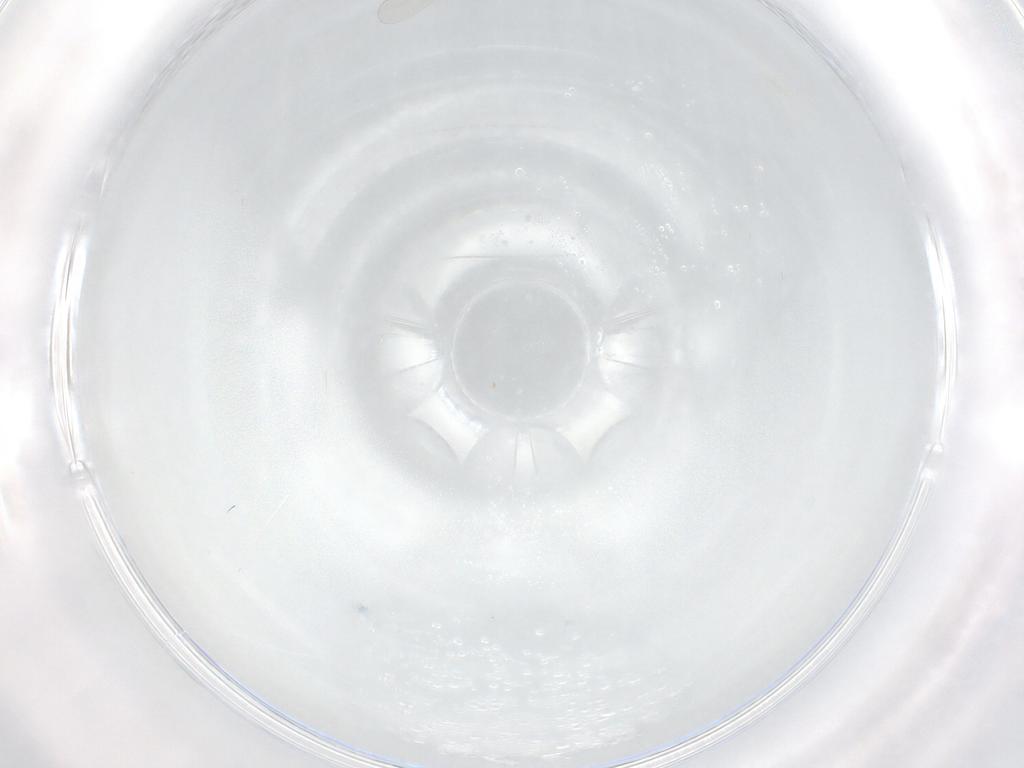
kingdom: Animalia
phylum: Arthropoda
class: Insecta
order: Diptera
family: Chironomidae
